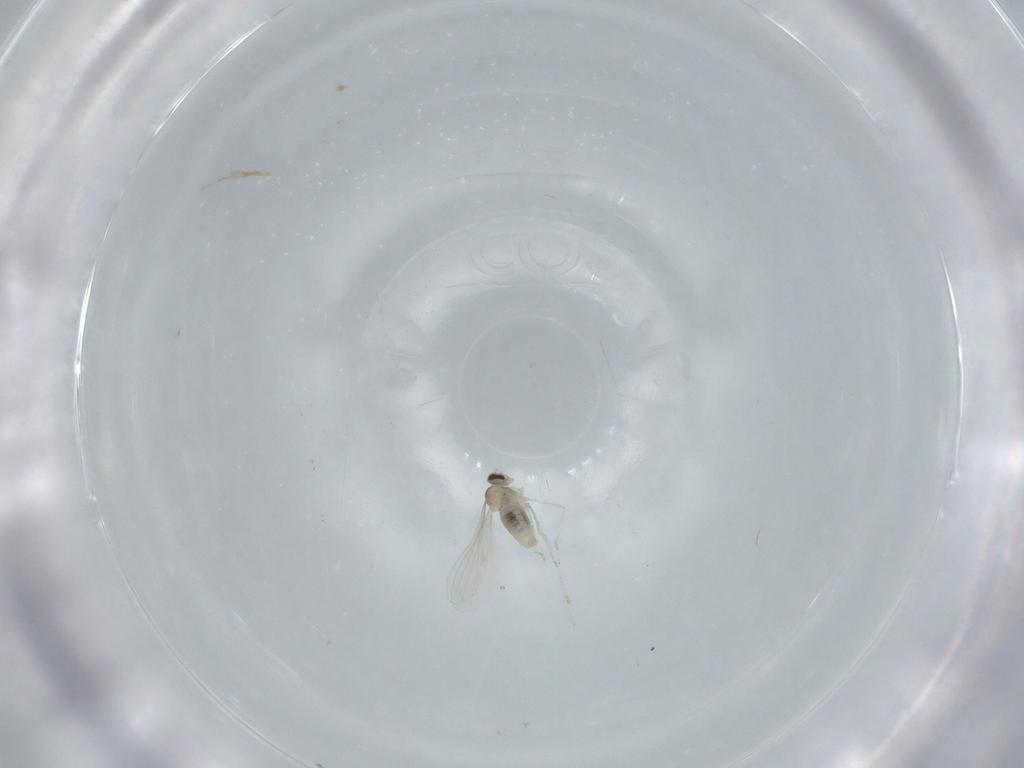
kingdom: Animalia
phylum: Arthropoda
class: Insecta
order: Diptera
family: Cecidomyiidae
